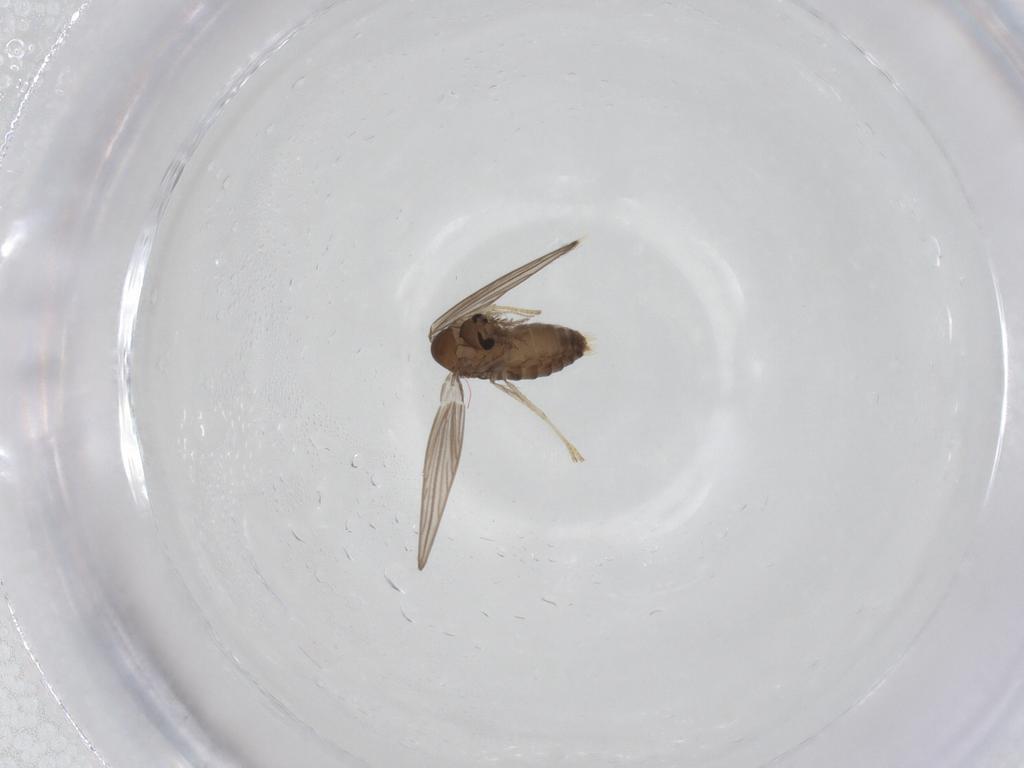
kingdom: Animalia
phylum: Arthropoda
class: Insecta
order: Diptera
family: Psychodidae
